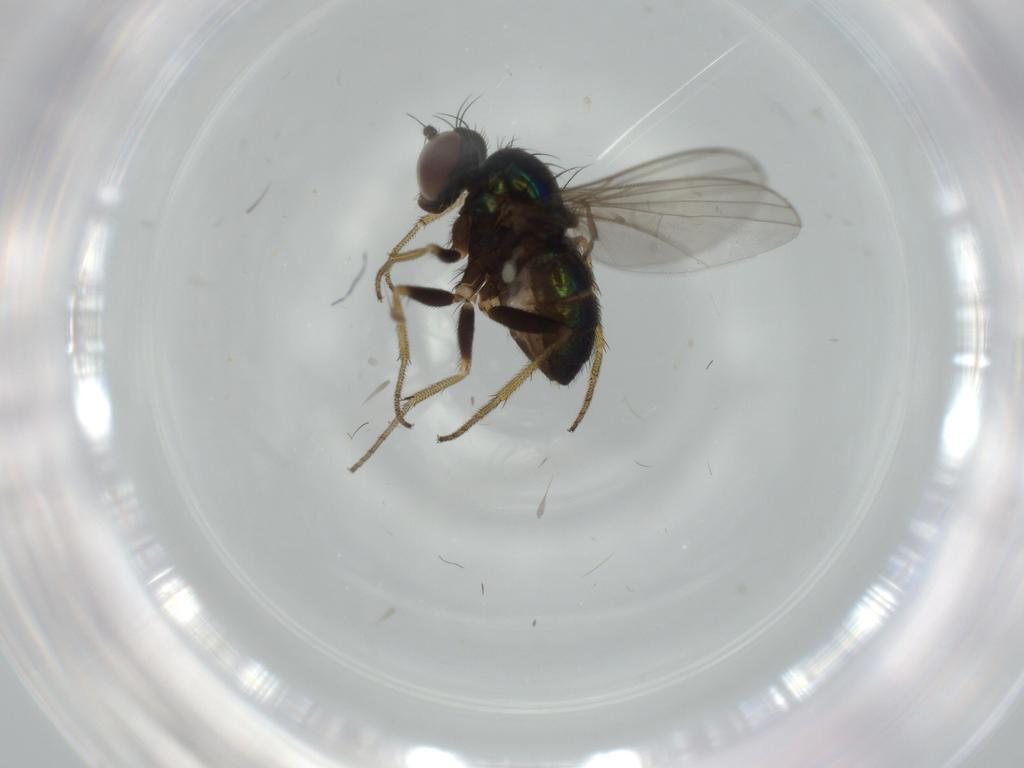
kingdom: Animalia
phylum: Arthropoda
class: Insecta
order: Diptera
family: Dolichopodidae
